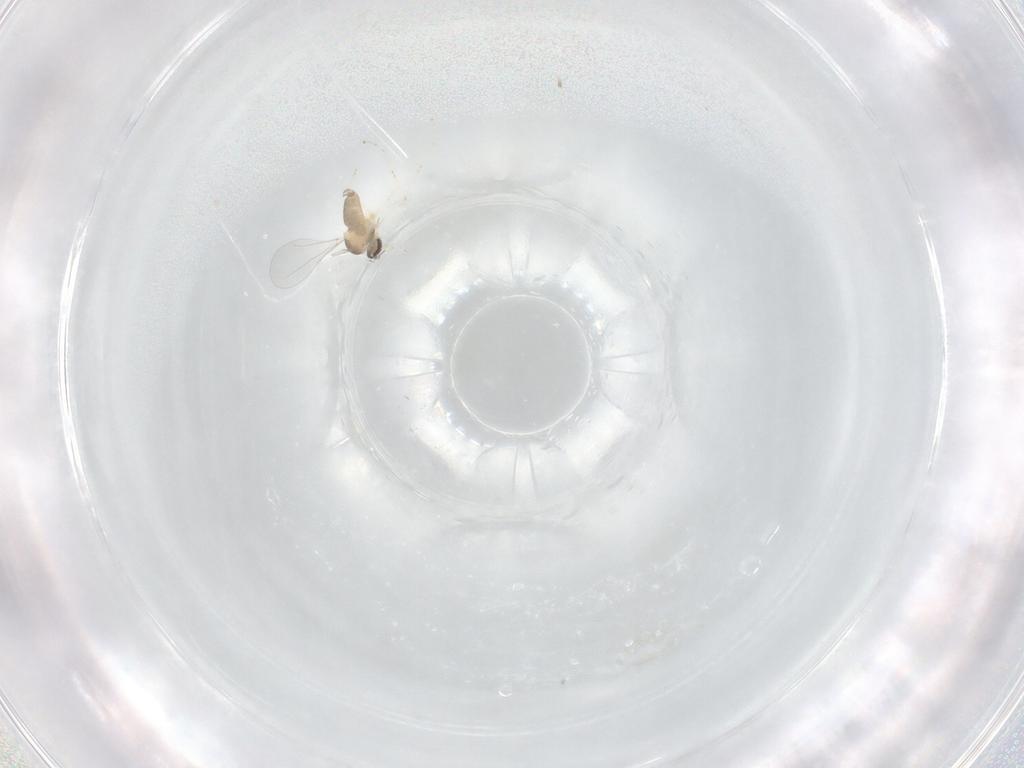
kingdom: Animalia
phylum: Arthropoda
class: Insecta
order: Diptera
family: Cecidomyiidae
